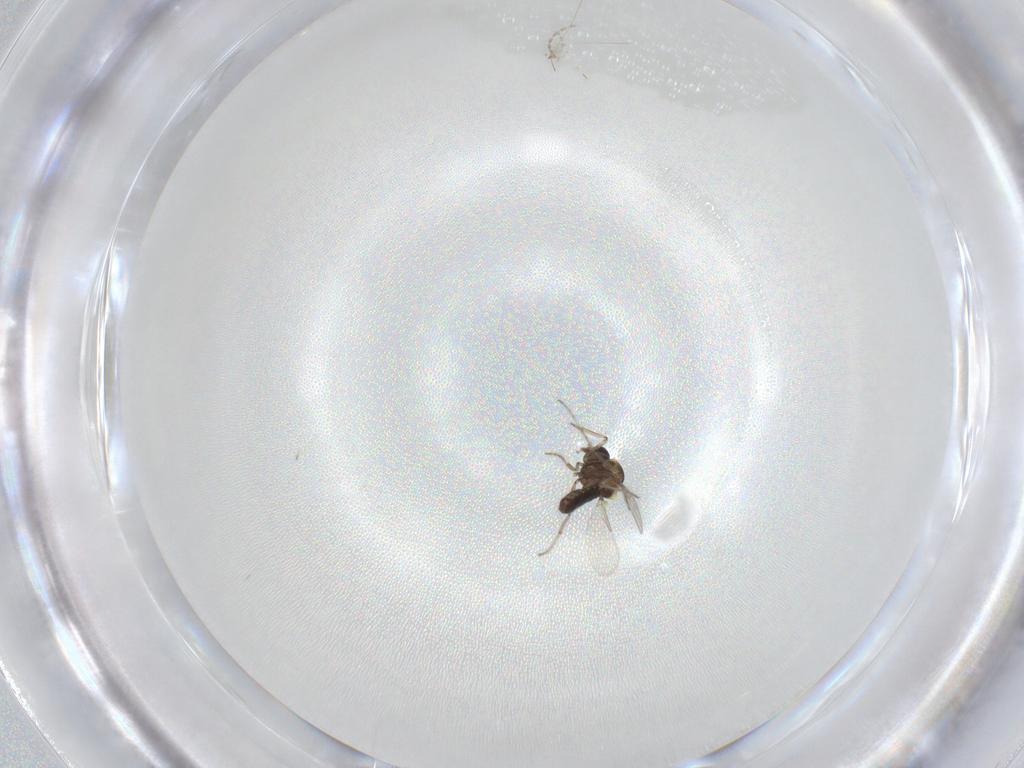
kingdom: Animalia
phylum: Arthropoda
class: Insecta
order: Diptera
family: Ceratopogonidae
